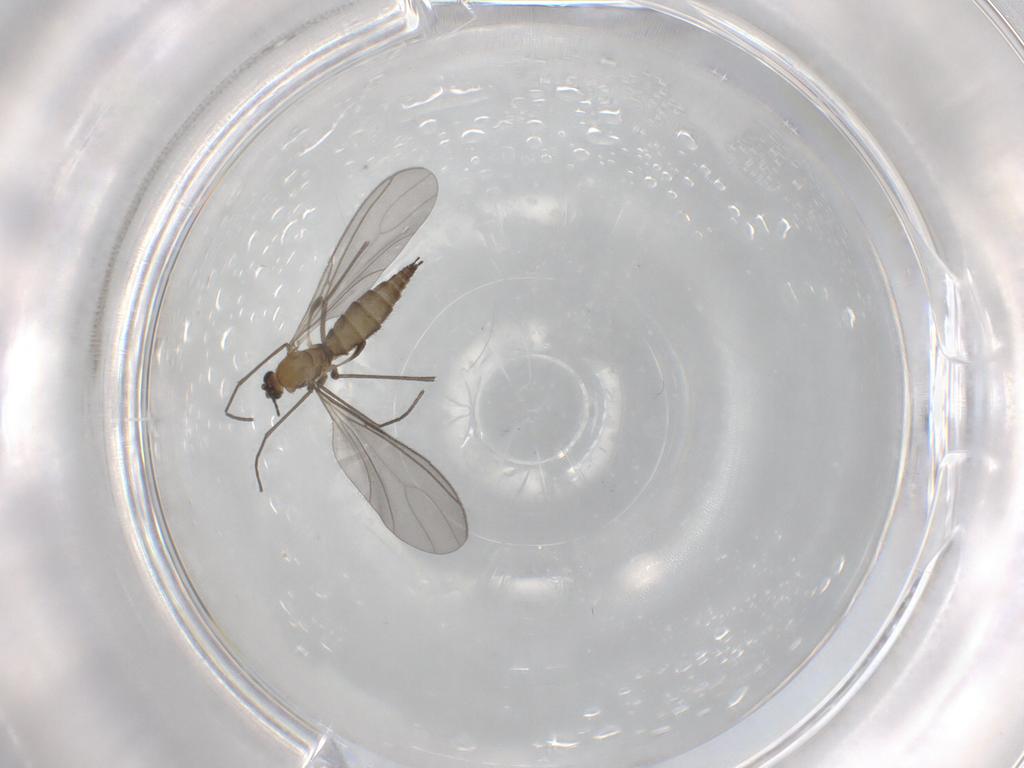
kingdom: Animalia
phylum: Arthropoda
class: Insecta
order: Diptera
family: Sciaridae
